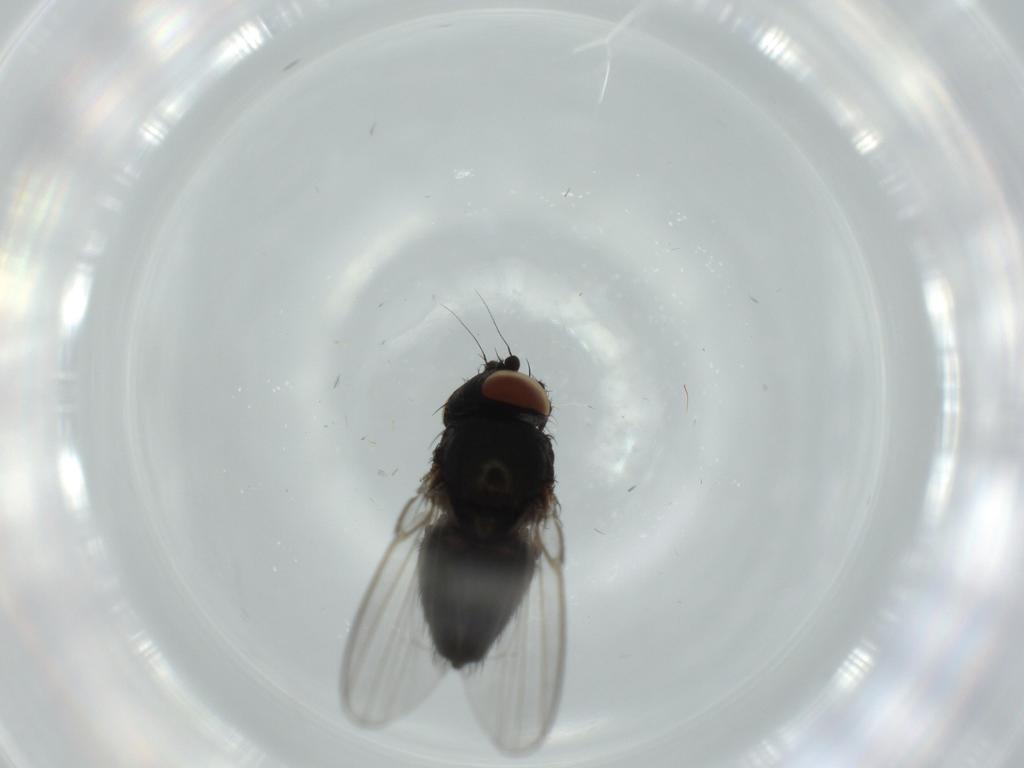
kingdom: Animalia
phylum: Arthropoda
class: Insecta
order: Diptera
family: Milichiidae
